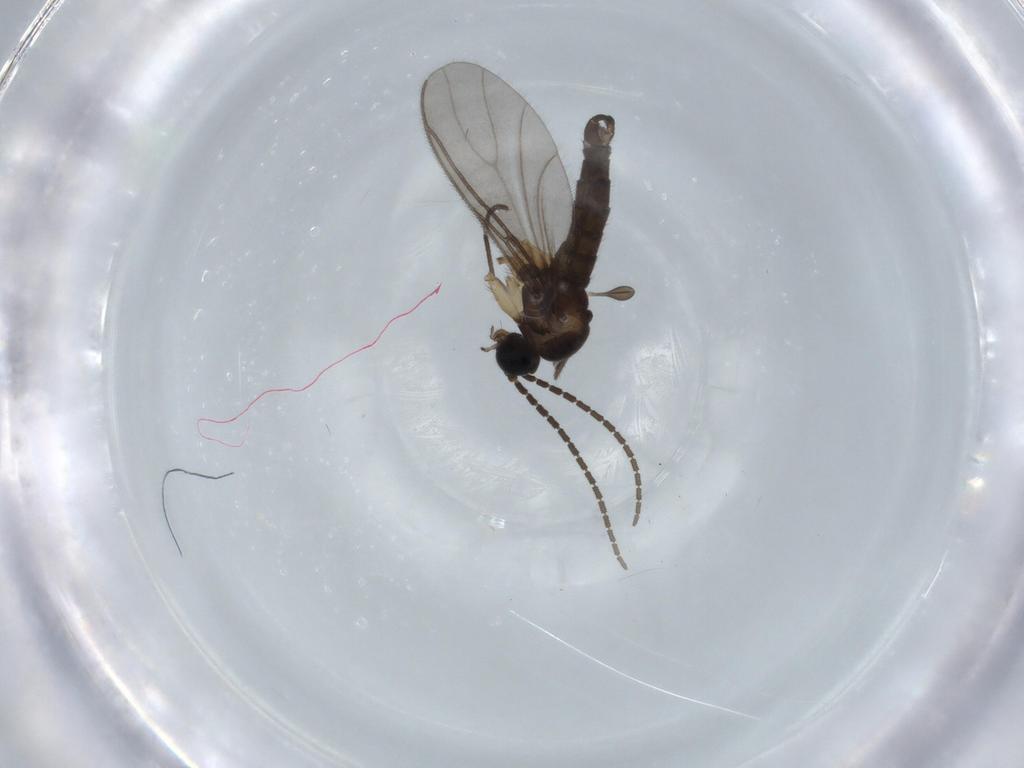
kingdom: Animalia
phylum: Arthropoda
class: Insecta
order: Diptera
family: Sciaridae
